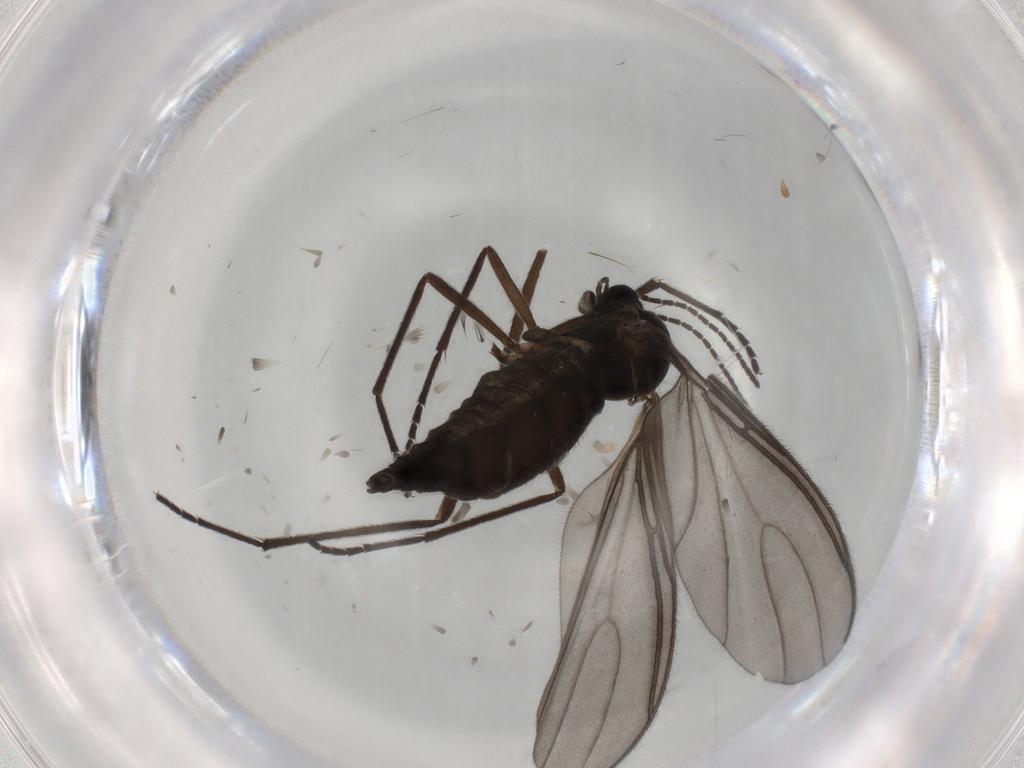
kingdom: Animalia
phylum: Arthropoda
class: Insecta
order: Diptera
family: Sciaridae
